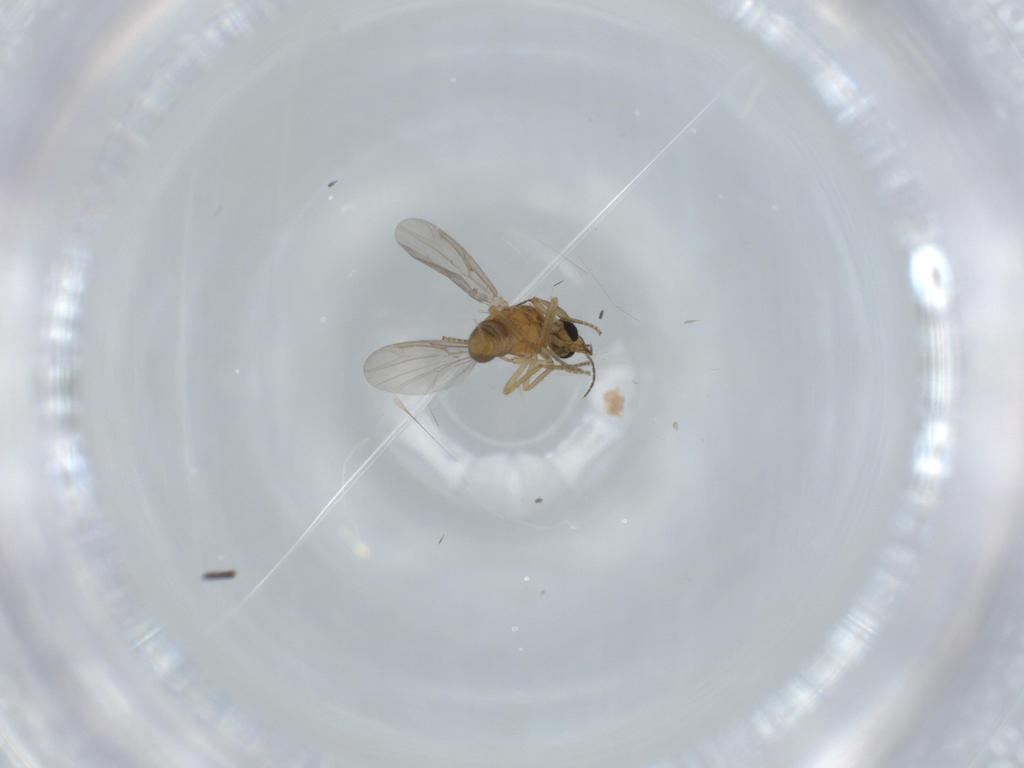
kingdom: Animalia
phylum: Arthropoda
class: Insecta
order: Diptera
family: Ceratopogonidae
